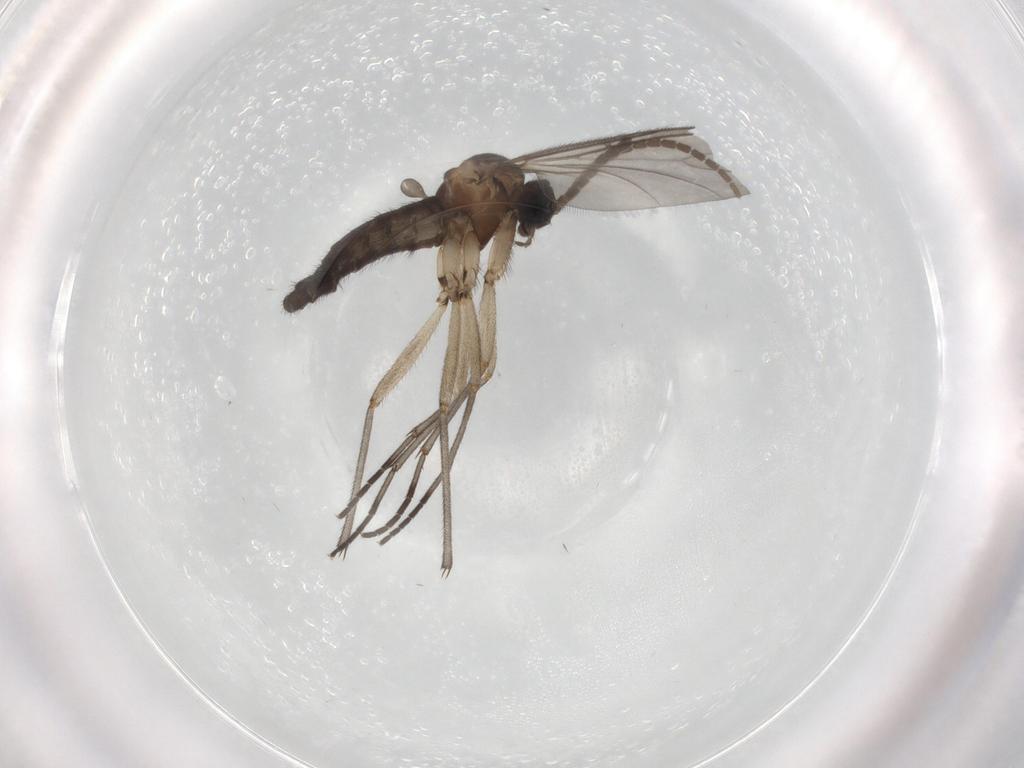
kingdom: Animalia
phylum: Arthropoda
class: Insecta
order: Diptera
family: Sciaridae
